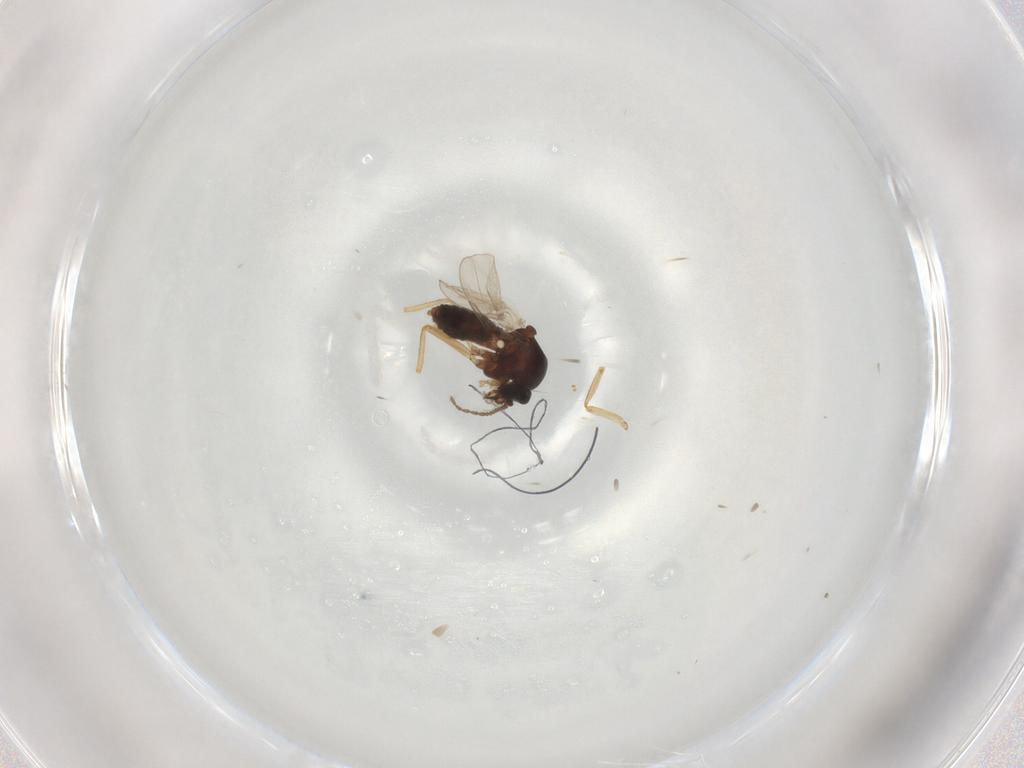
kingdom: Animalia
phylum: Arthropoda
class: Insecta
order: Diptera
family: Ceratopogonidae
